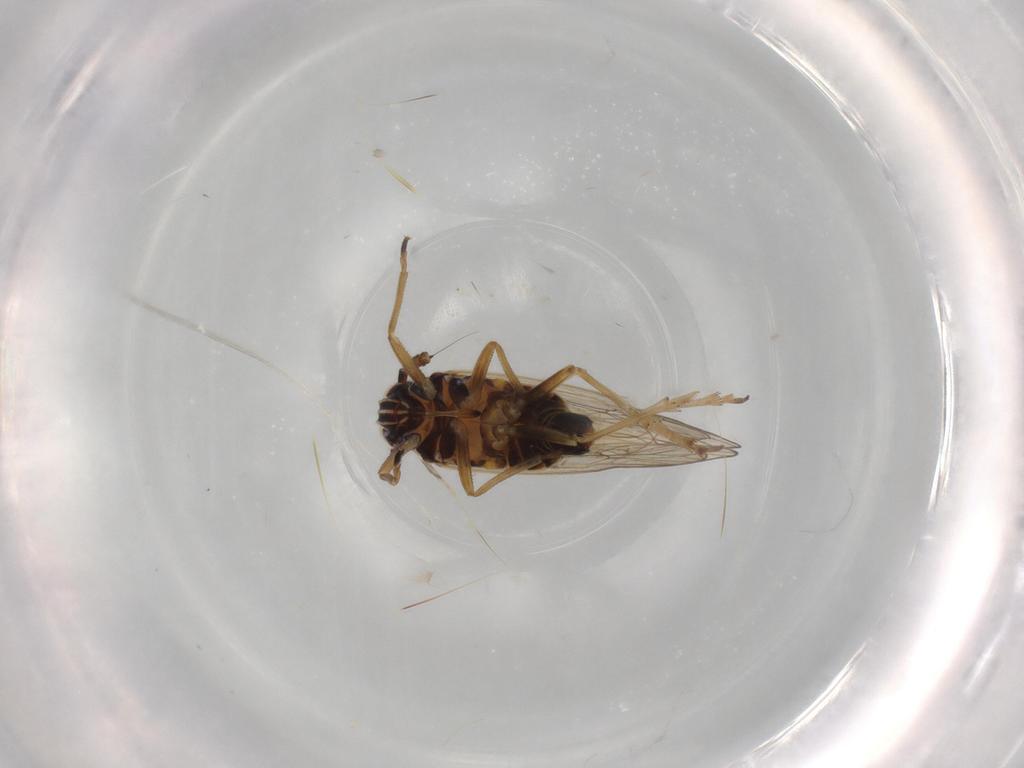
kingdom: Animalia
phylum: Arthropoda
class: Insecta
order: Hemiptera
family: Delphacidae
